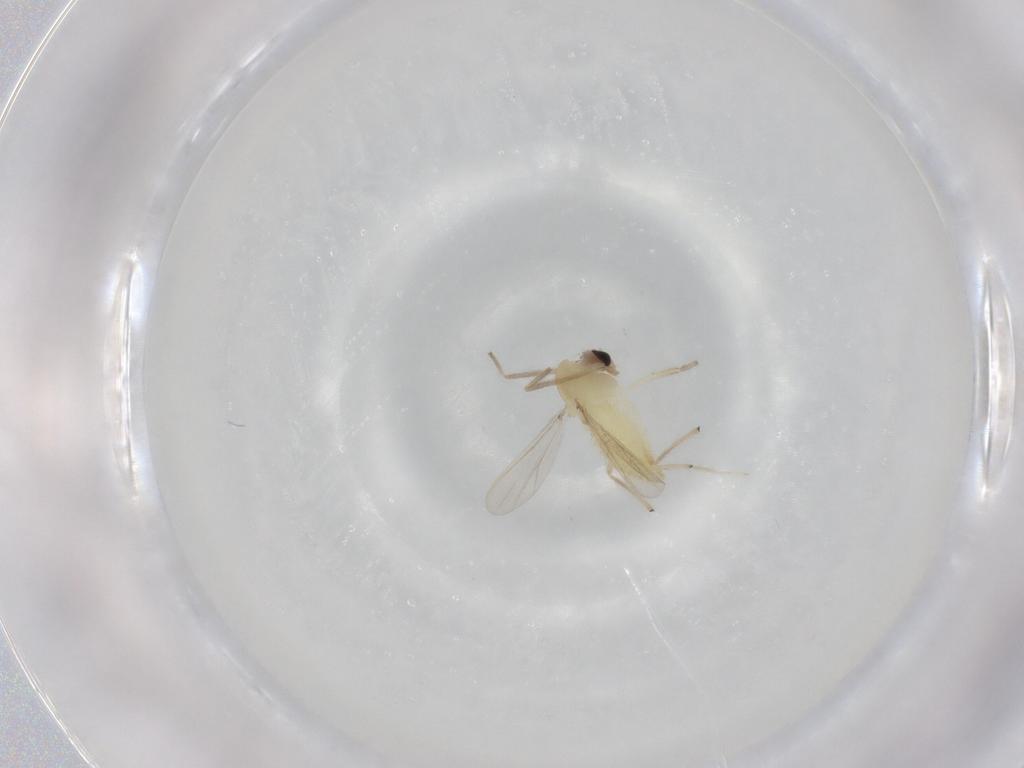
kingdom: Animalia
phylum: Arthropoda
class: Insecta
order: Diptera
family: Chironomidae
